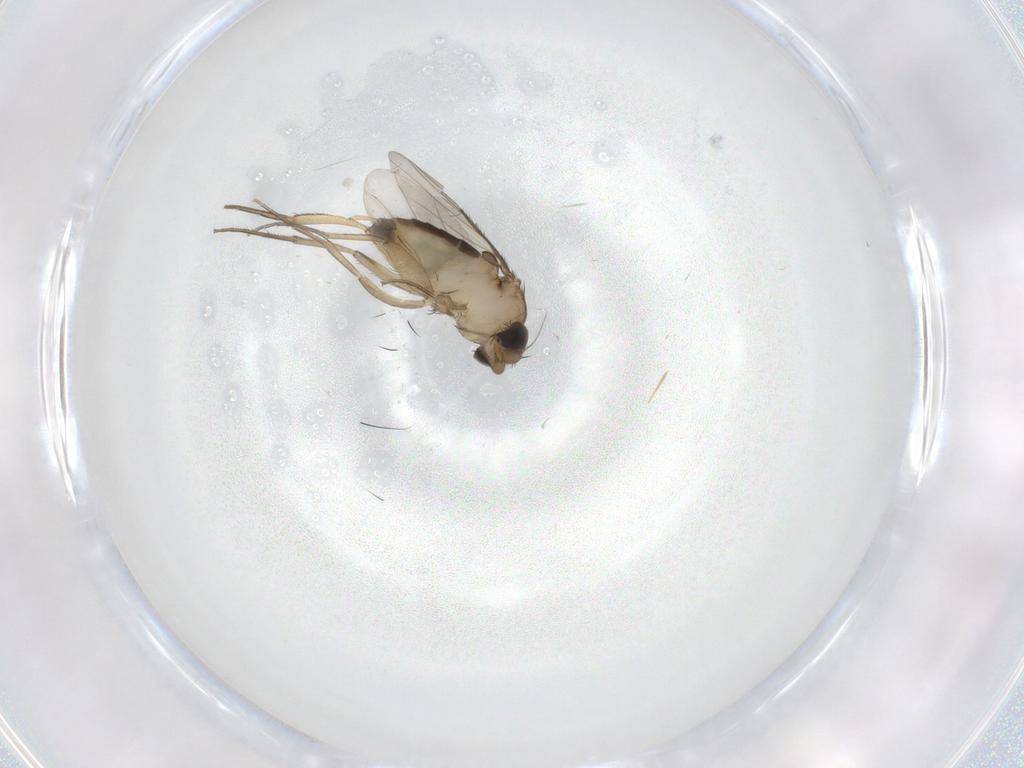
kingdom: Animalia
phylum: Arthropoda
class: Insecta
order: Diptera
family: Phoridae
